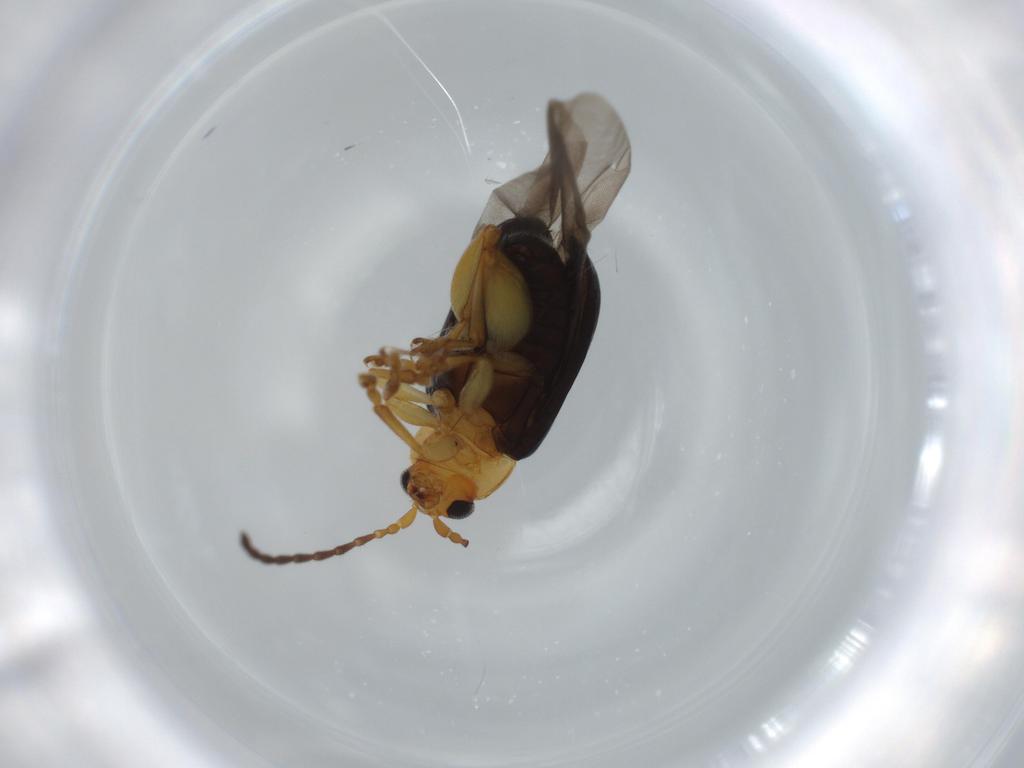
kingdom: Animalia
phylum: Arthropoda
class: Insecta
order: Coleoptera
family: Chrysomelidae
